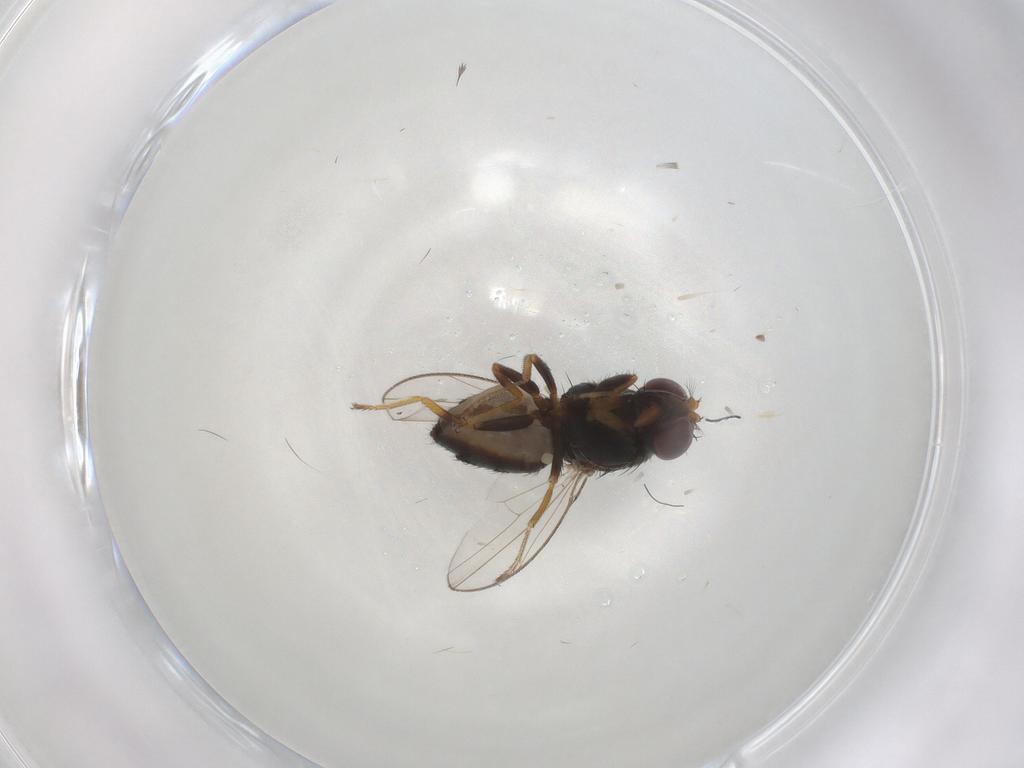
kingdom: Animalia
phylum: Arthropoda
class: Insecta
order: Diptera
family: Ephydridae
